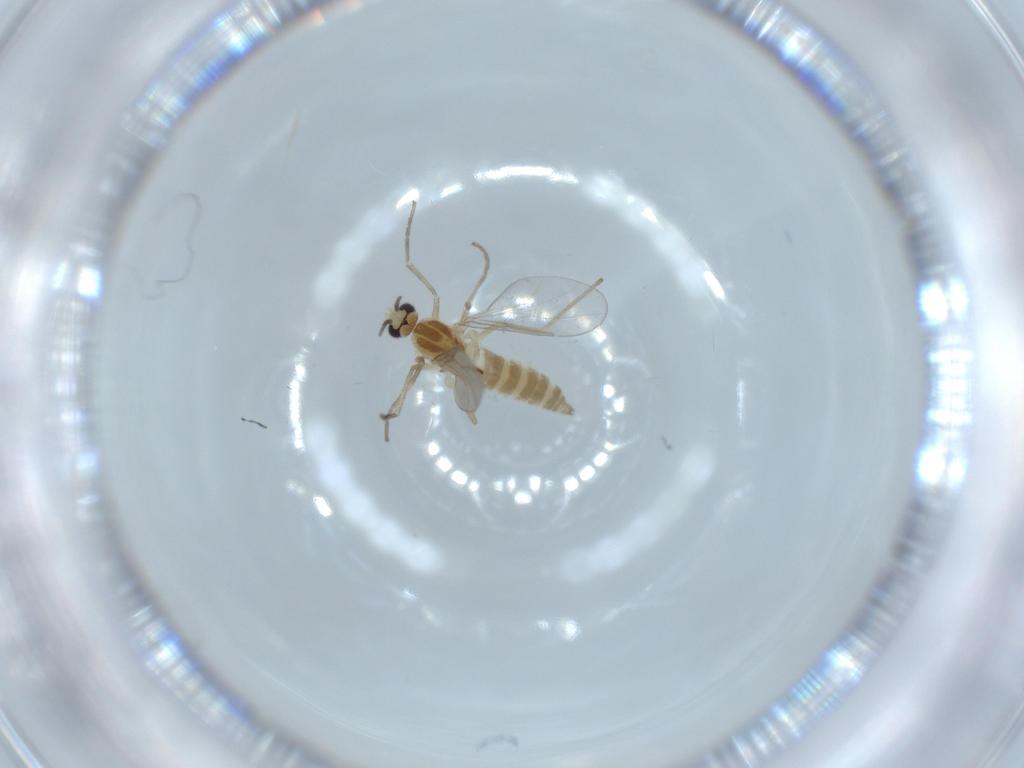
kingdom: Animalia
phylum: Arthropoda
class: Insecta
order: Diptera
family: Cecidomyiidae
